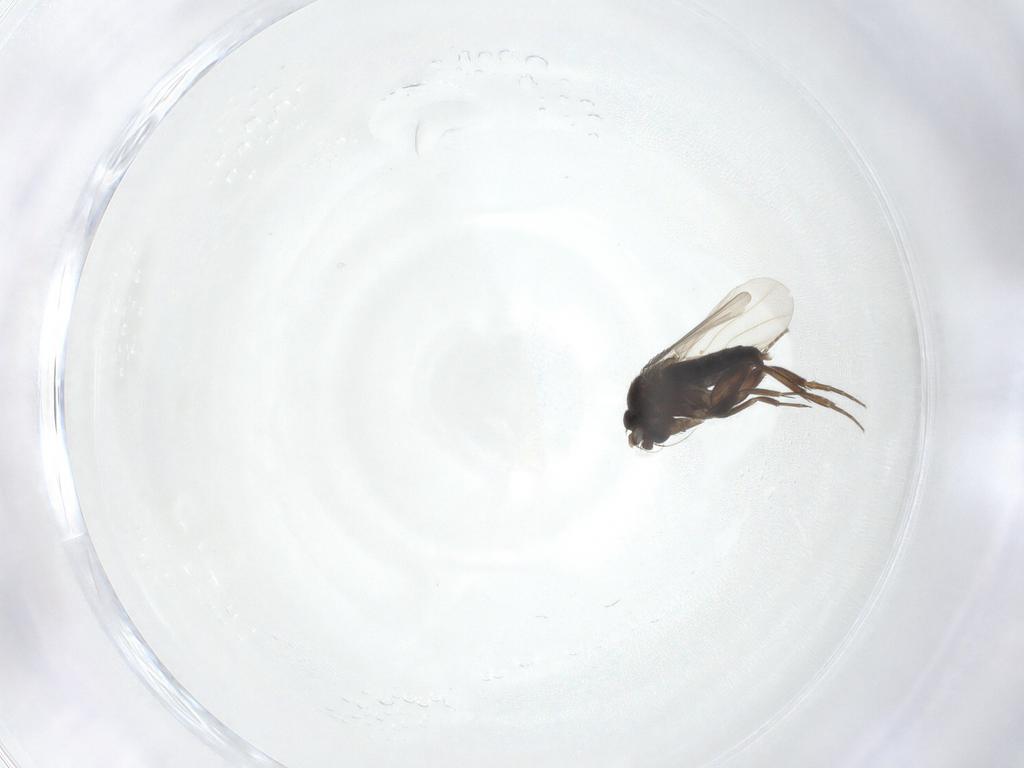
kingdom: Animalia
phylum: Arthropoda
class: Insecta
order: Diptera
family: Phoridae
